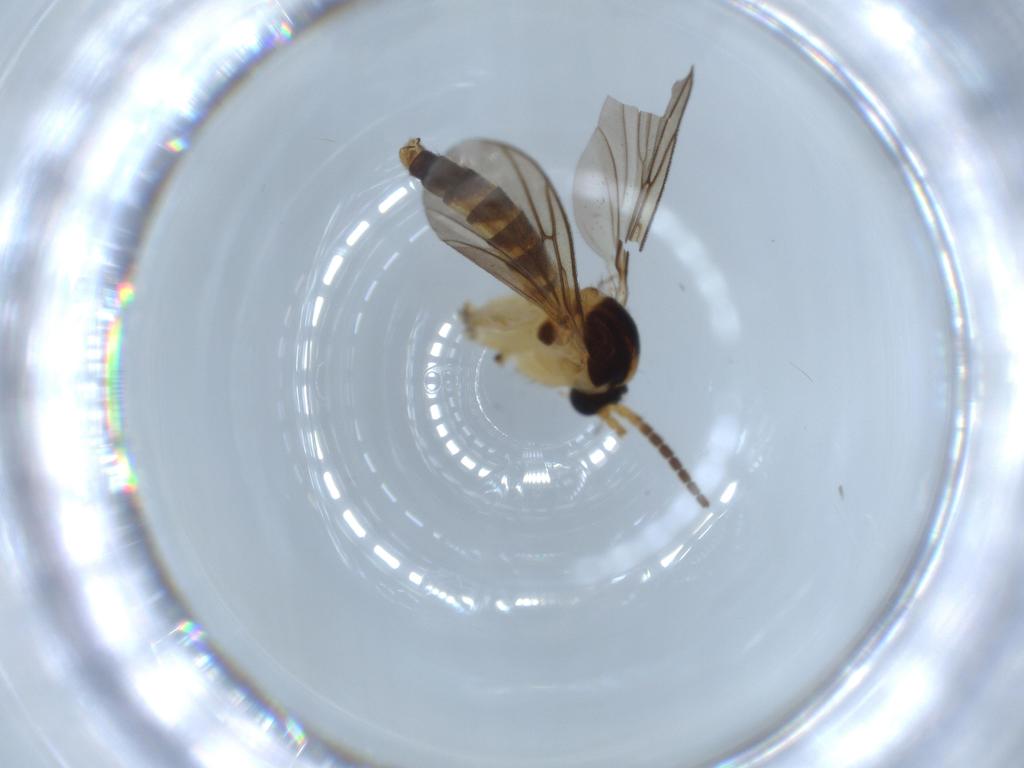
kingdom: Animalia
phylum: Arthropoda
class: Insecta
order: Diptera
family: Mycetophilidae
